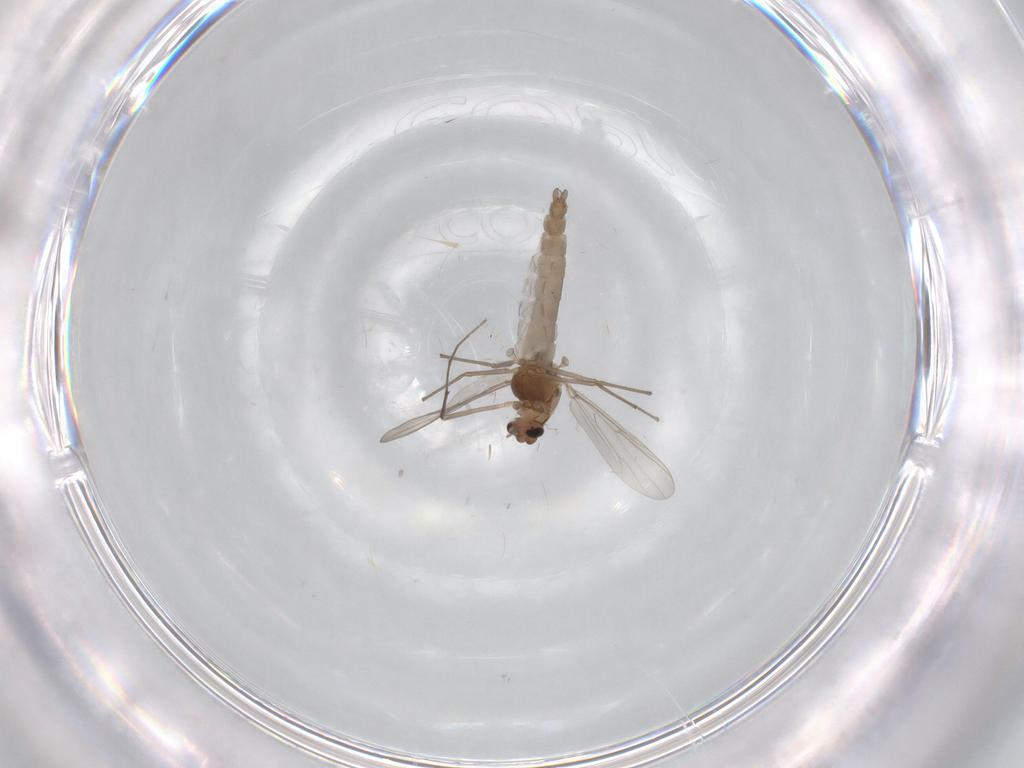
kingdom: Animalia
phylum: Arthropoda
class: Insecta
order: Diptera
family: Chironomidae
